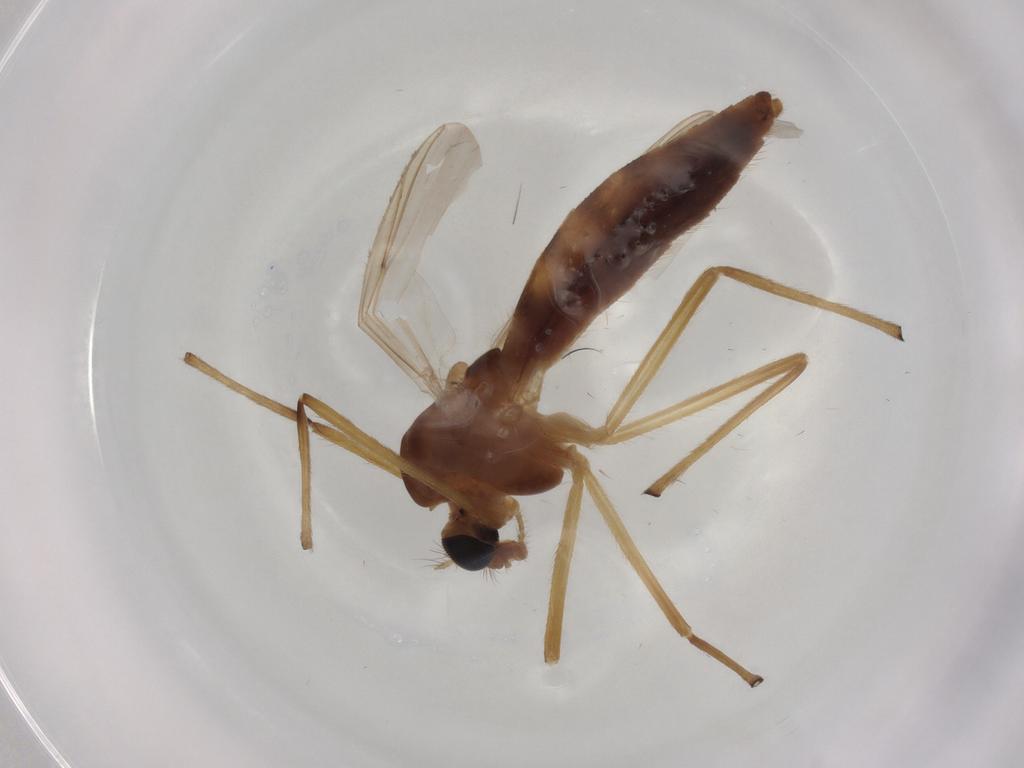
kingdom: Animalia
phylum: Arthropoda
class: Insecta
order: Diptera
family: Chironomidae
